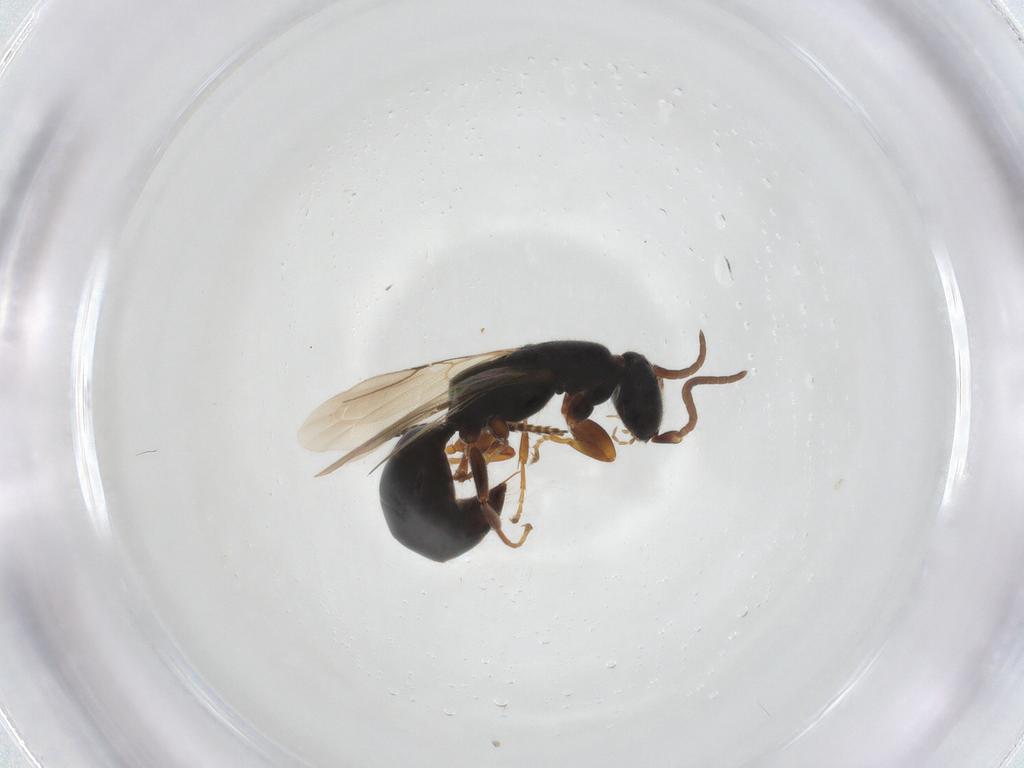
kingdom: Animalia
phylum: Arthropoda
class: Insecta
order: Hymenoptera
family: Bethylidae
